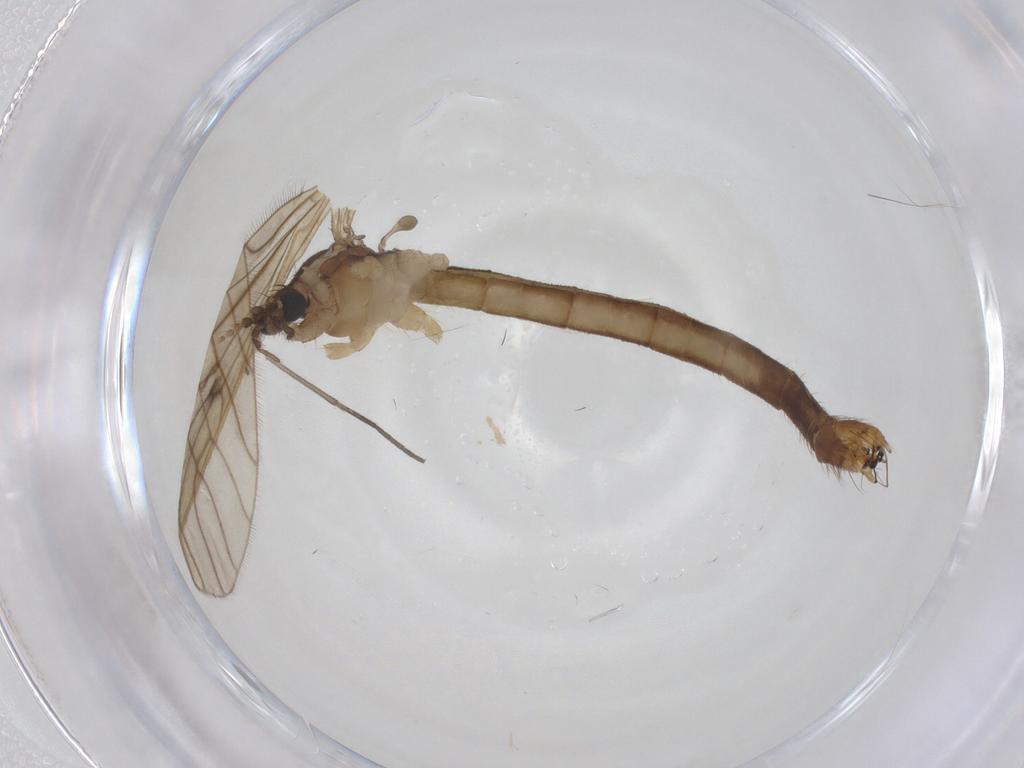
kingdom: Animalia
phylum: Arthropoda
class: Insecta
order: Diptera
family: Limoniidae
